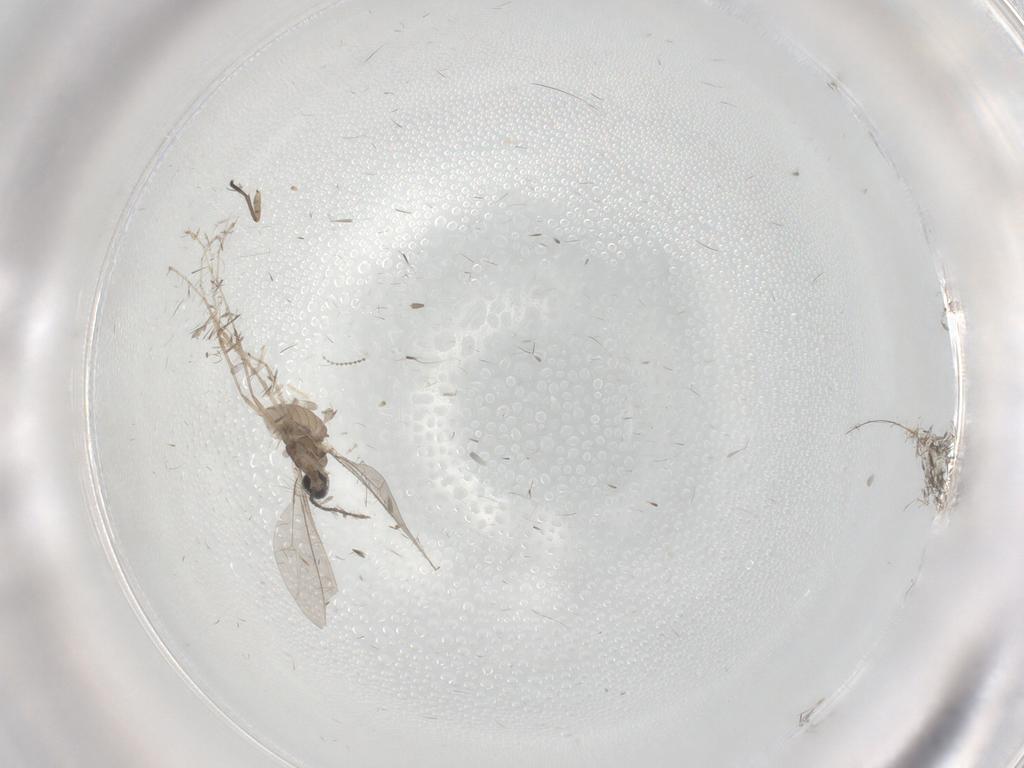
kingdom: Animalia
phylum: Arthropoda
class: Insecta
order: Diptera
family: Cecidomyiidae
